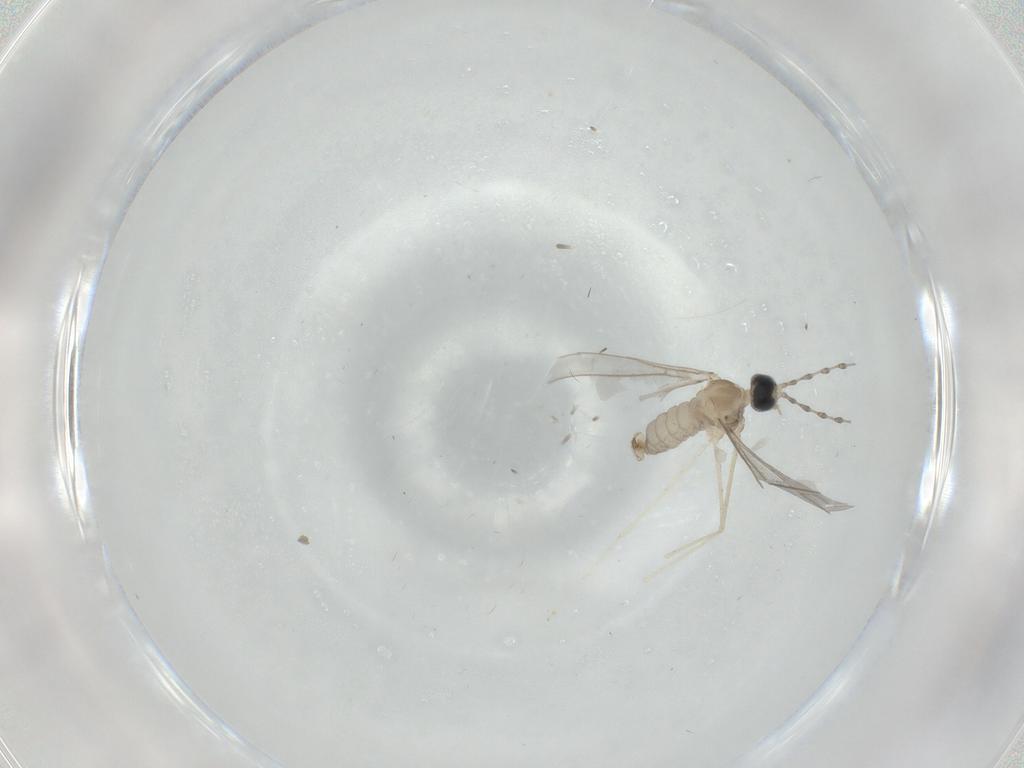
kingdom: Animalia
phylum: Arthropoda
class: Insecta
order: Diptera
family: Cecidomyiidae
